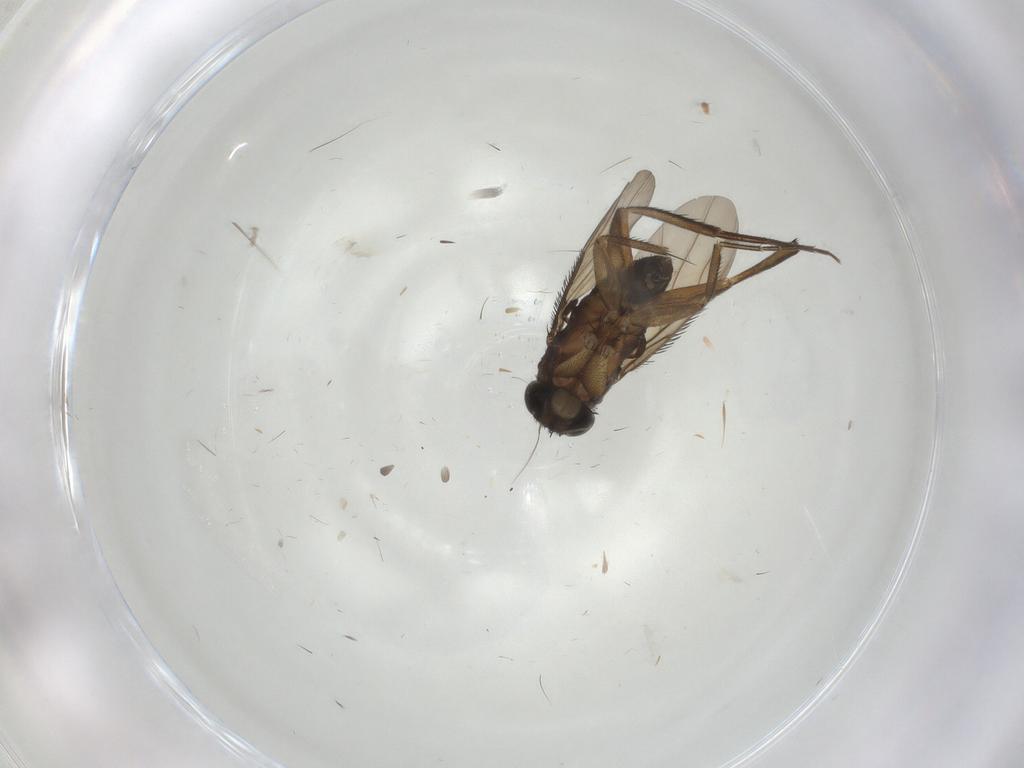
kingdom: Animalia
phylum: Arthropoda
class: Insecta
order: Diptera
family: Phoridae
